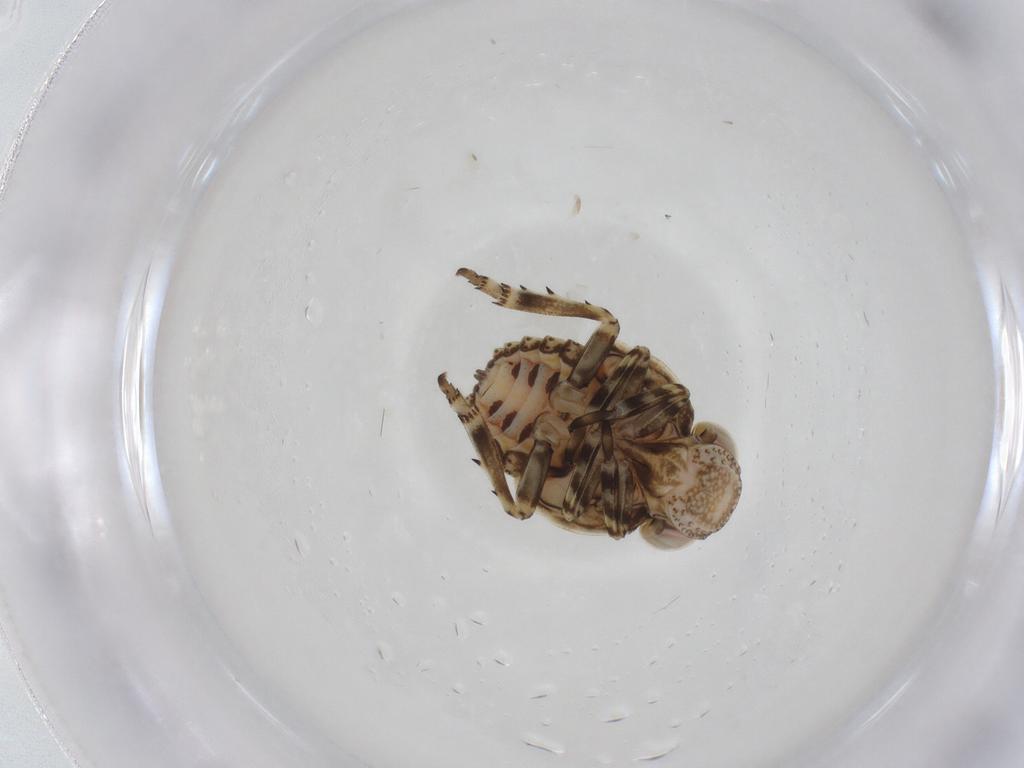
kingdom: Animalia
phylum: Arthropoda
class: Insecta
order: Hemiptera
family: Issidae
